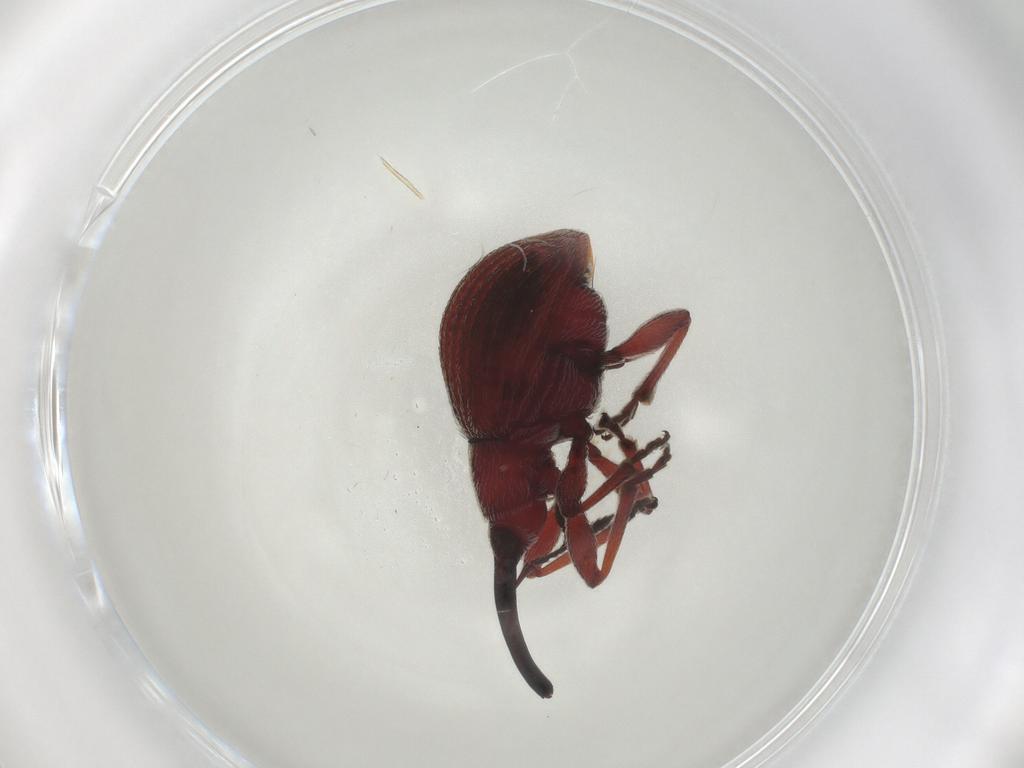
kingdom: Animalia
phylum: Arthropoda
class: Insecta
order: Coleoptera
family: Brentidae
